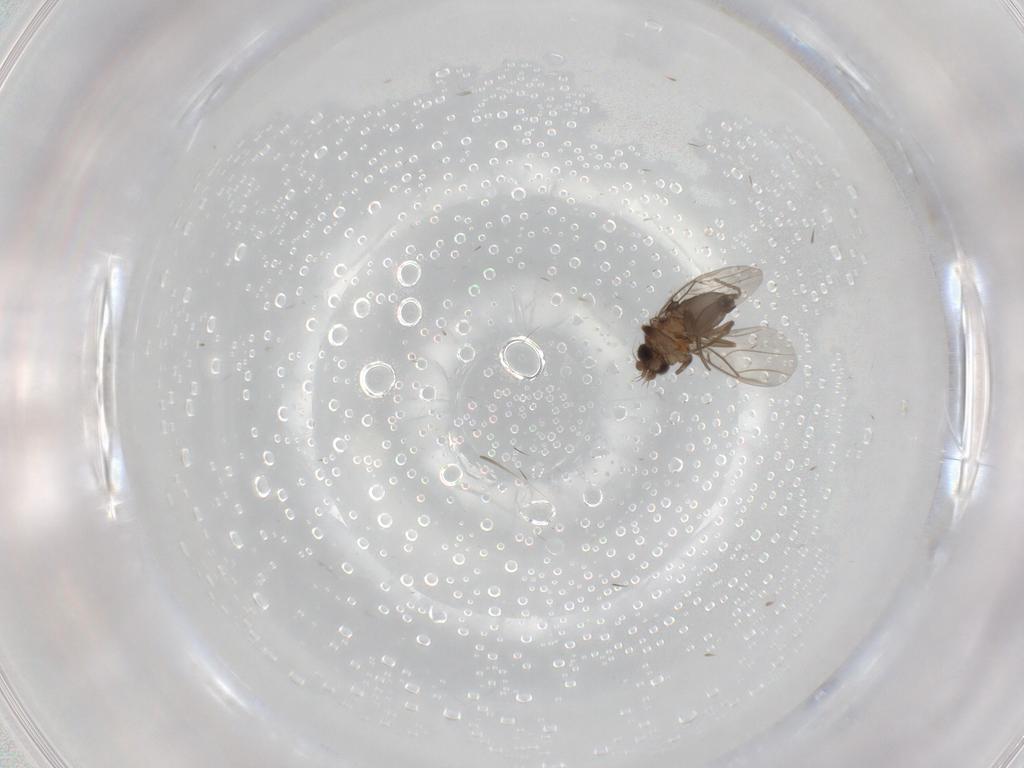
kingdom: Animalia
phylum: Arthropoda
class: Insecta
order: Diptera
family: Phoridae
